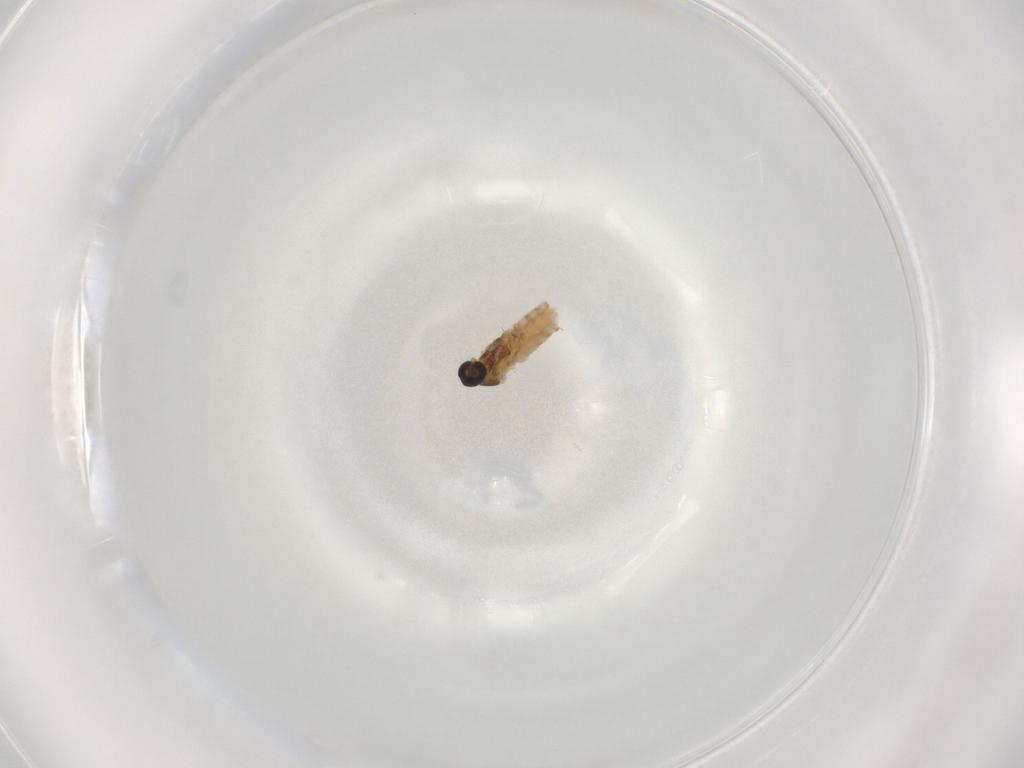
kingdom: Animalia
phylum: Arthropoda
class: Insecta
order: Diptera
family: Cecidomyiidae
